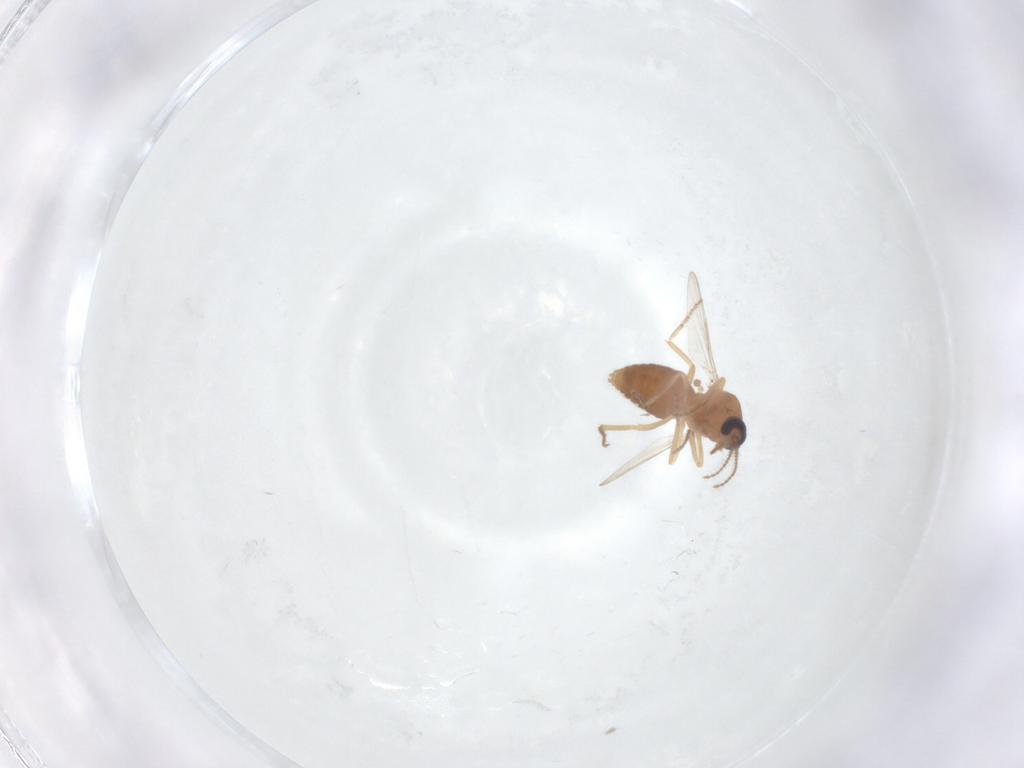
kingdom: Animalia
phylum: Arthropoda
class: Insecta
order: Diptera
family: Ceratopogonidae
